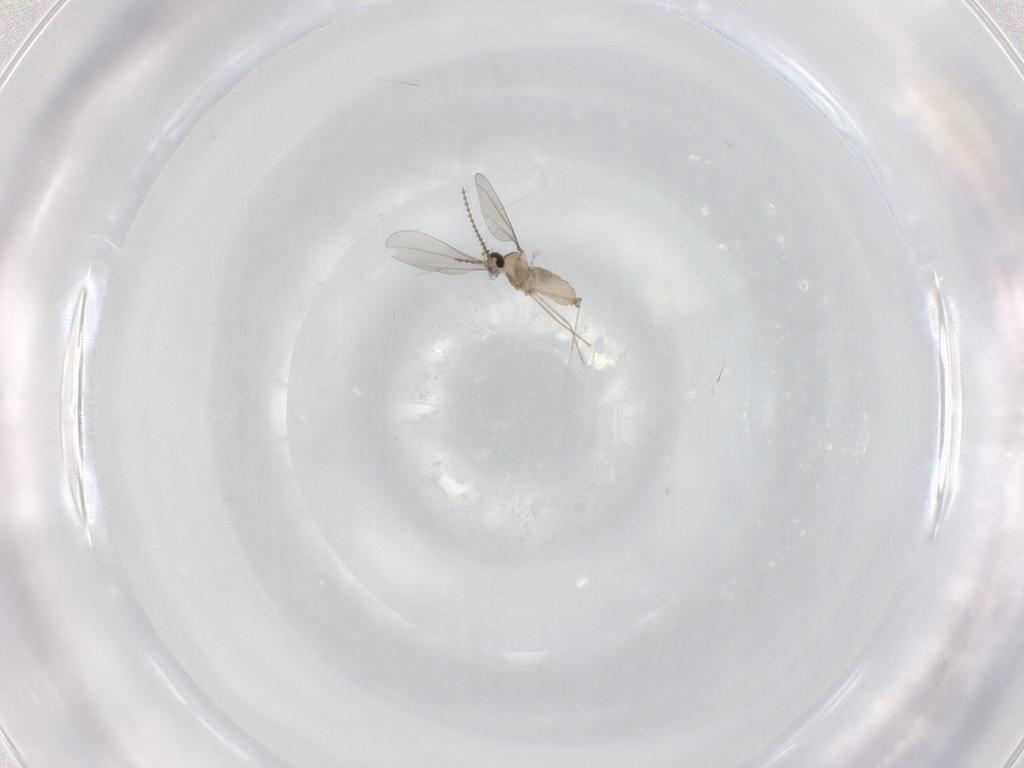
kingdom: Animalia
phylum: Arthropoda
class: Insecta
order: Diptera
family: Cecidomyiidae
